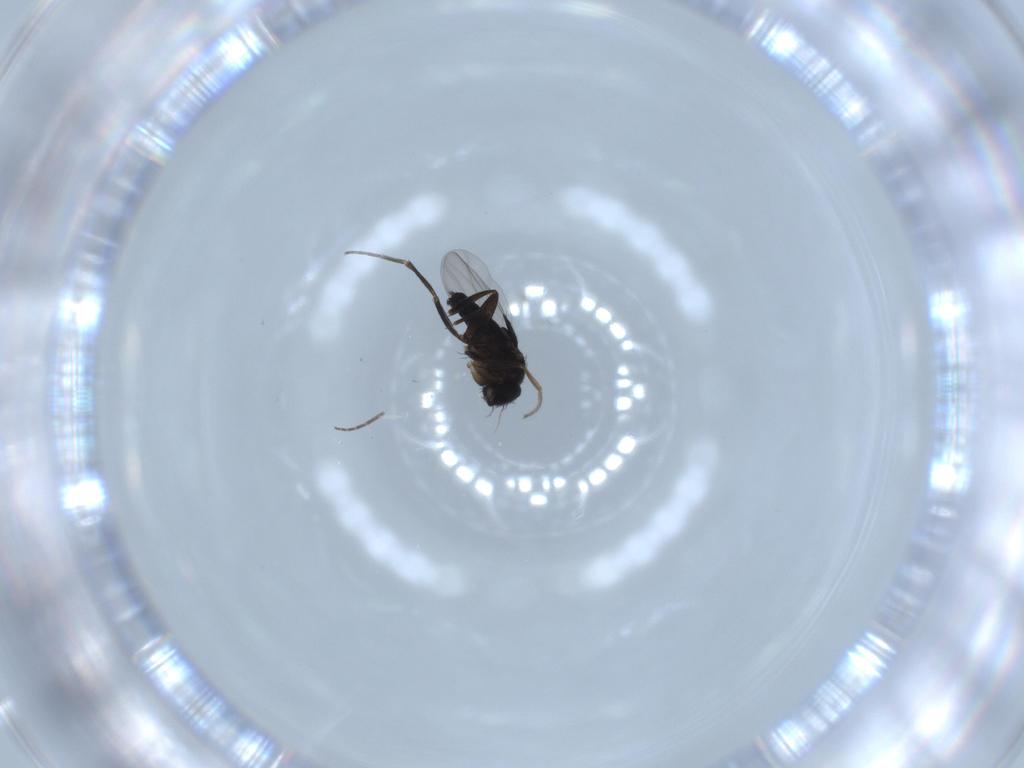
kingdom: Animalia
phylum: Arthropoda
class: Insecta
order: Diptera
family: Phoridae
